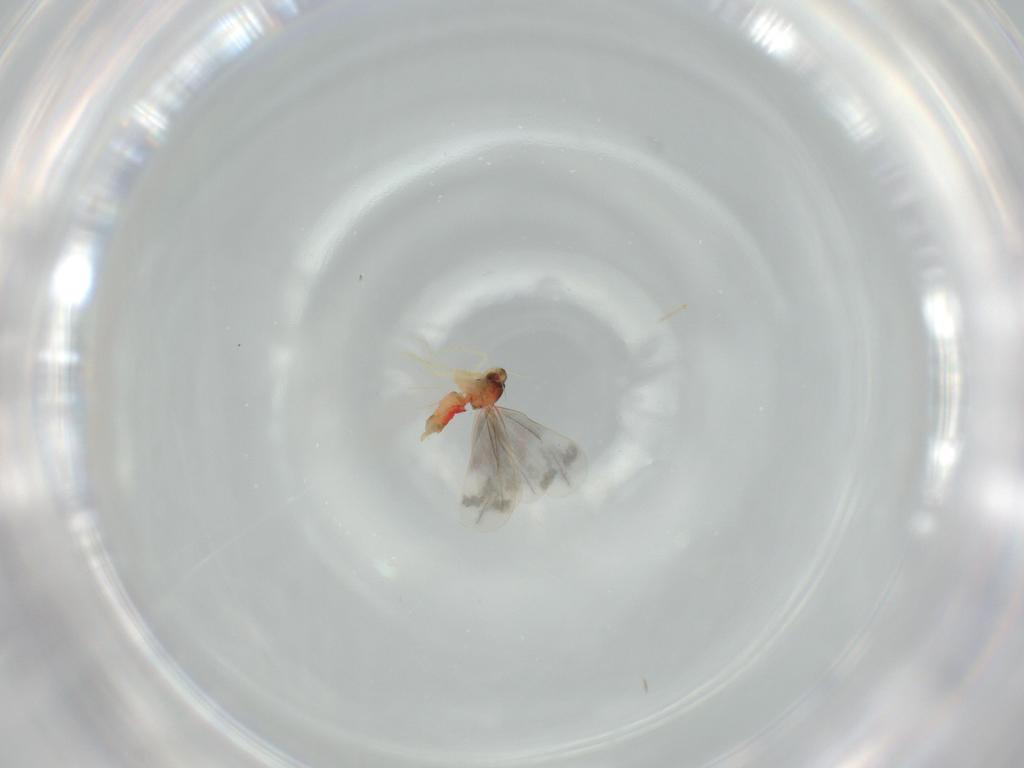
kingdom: Animalia
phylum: Arthropoda
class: Insecta
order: Hemiptera
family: Aleyrodidae
